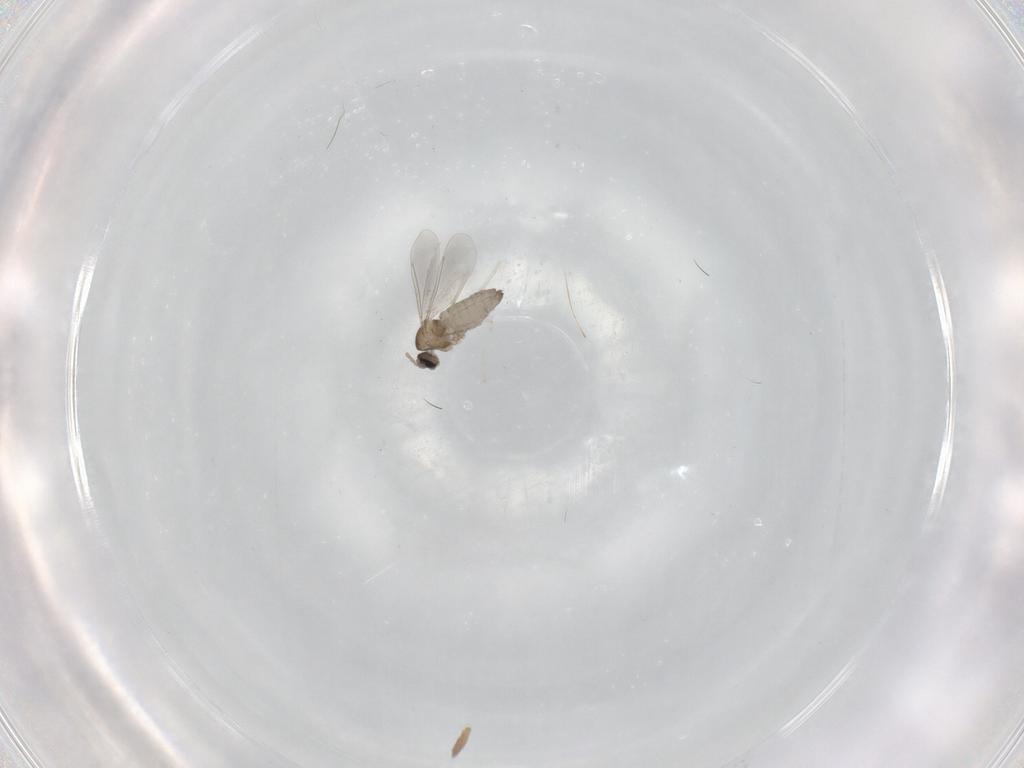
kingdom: Animalia
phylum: Arthropoda
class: Insecta
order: Diptera
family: Cecidomyiidae
